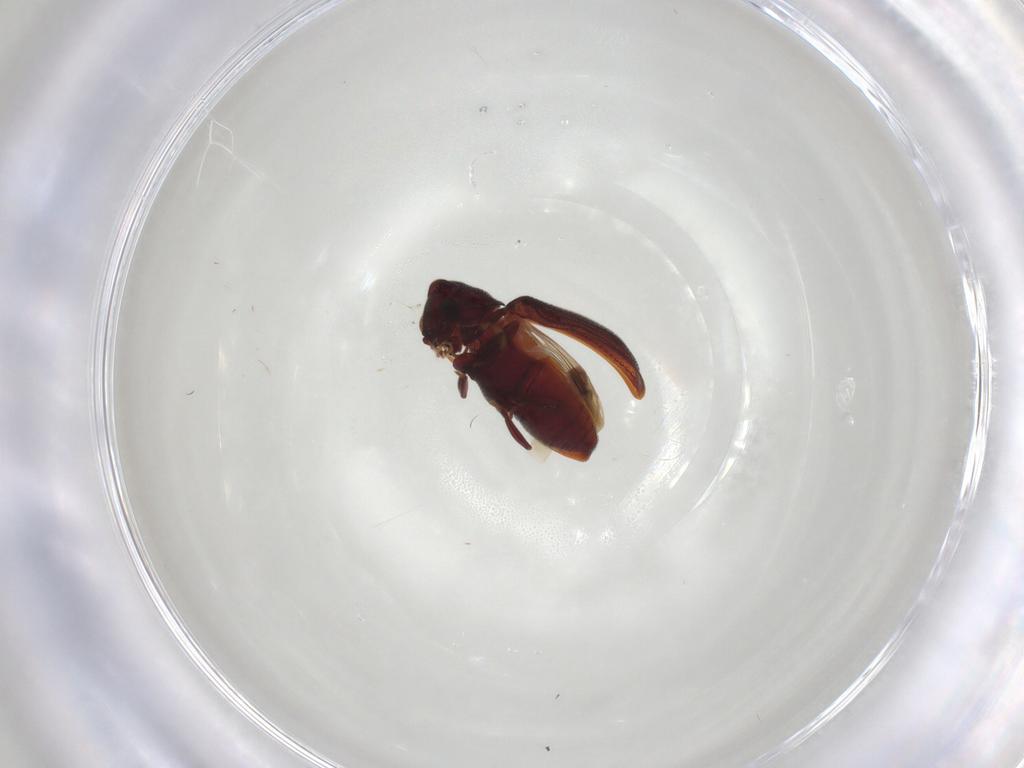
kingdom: Animalia
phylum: Arthropoda
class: Insecta
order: Coleoptera
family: Ptinidae
